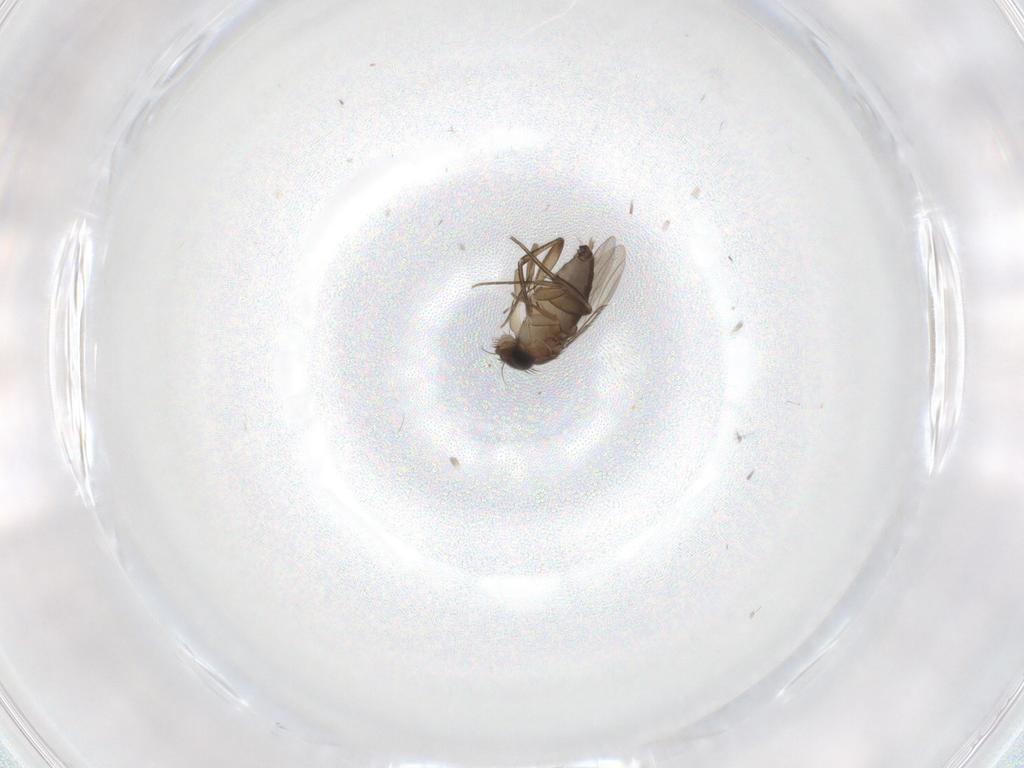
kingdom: Animalia
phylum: Arthropoda
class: Insecta
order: Diptera
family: Phoridae
